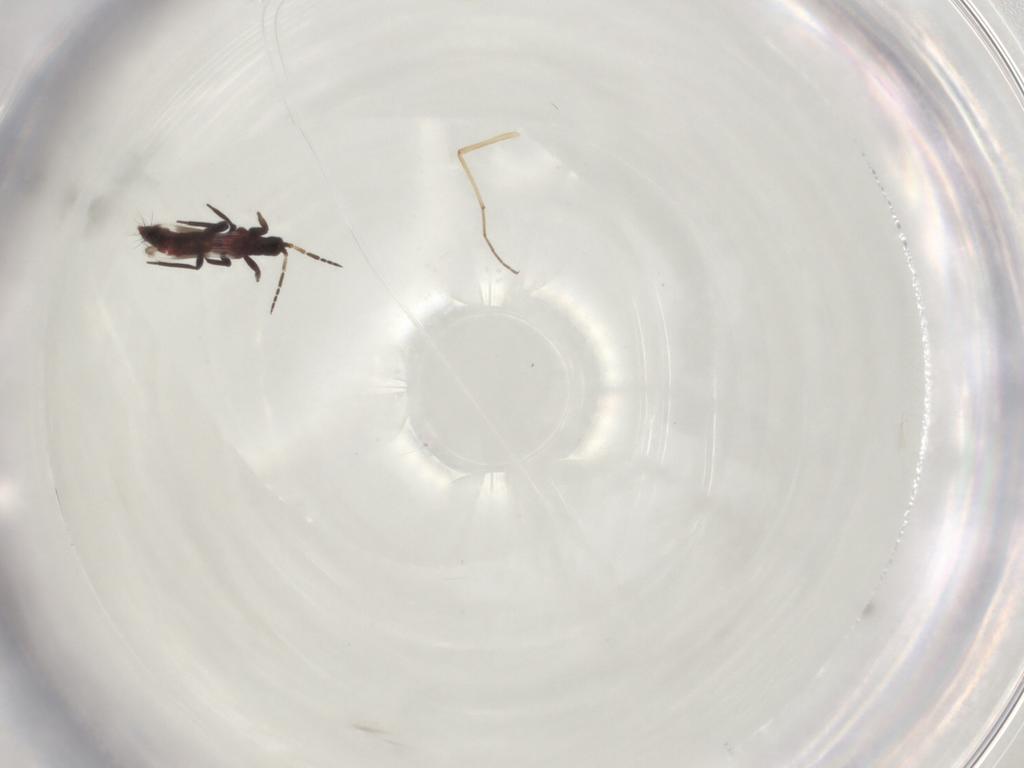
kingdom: Animalia
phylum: Arthropoda
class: Insecta
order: Thysanoptera
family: Aeolothripidae
